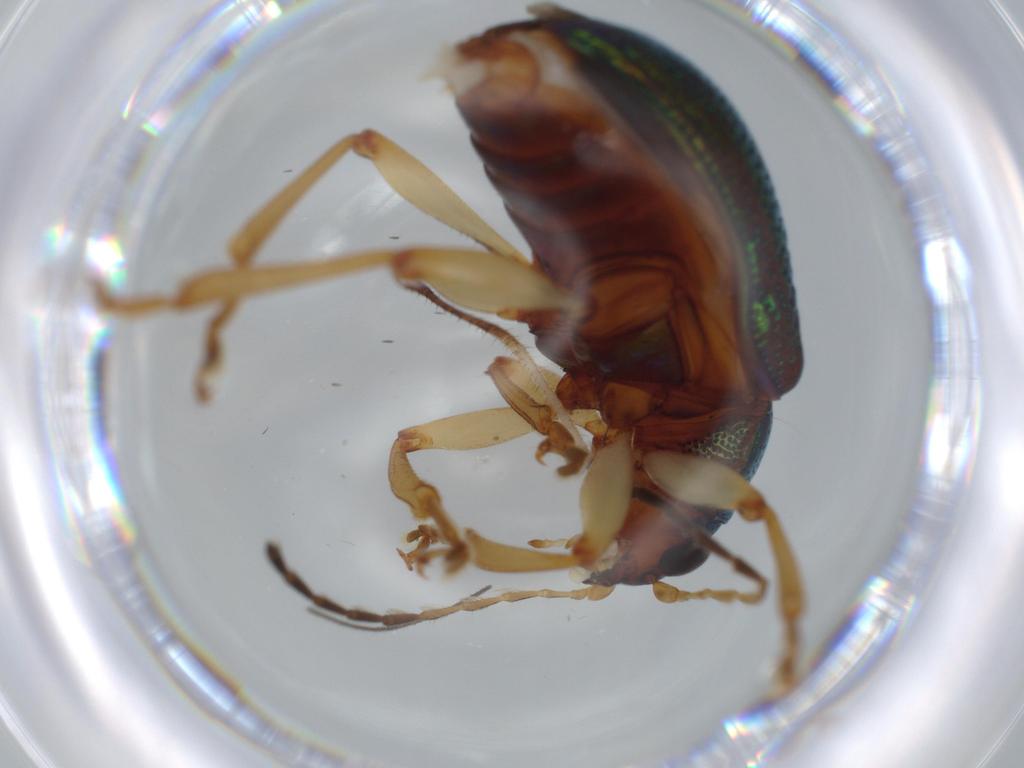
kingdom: Animalia
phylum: Arthropoda
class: Insecta
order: Coleoptera
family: Chrysomelidae
